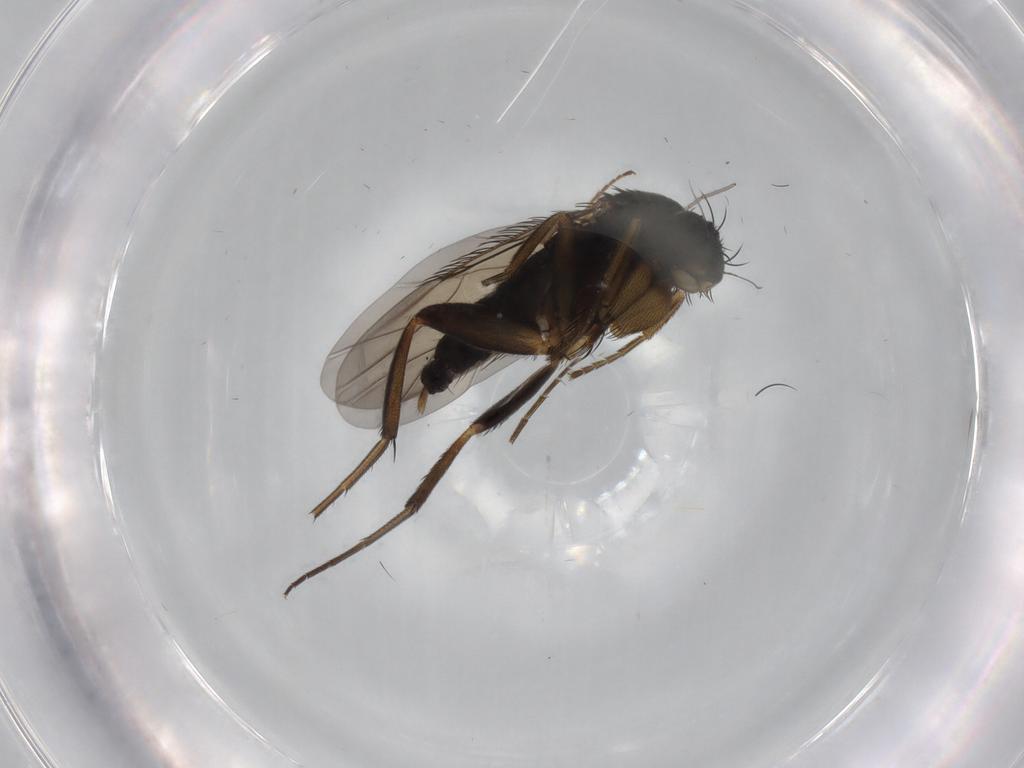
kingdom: Animalia
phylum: Arthropoda
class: Insecta
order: Diptera
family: Phoridae
